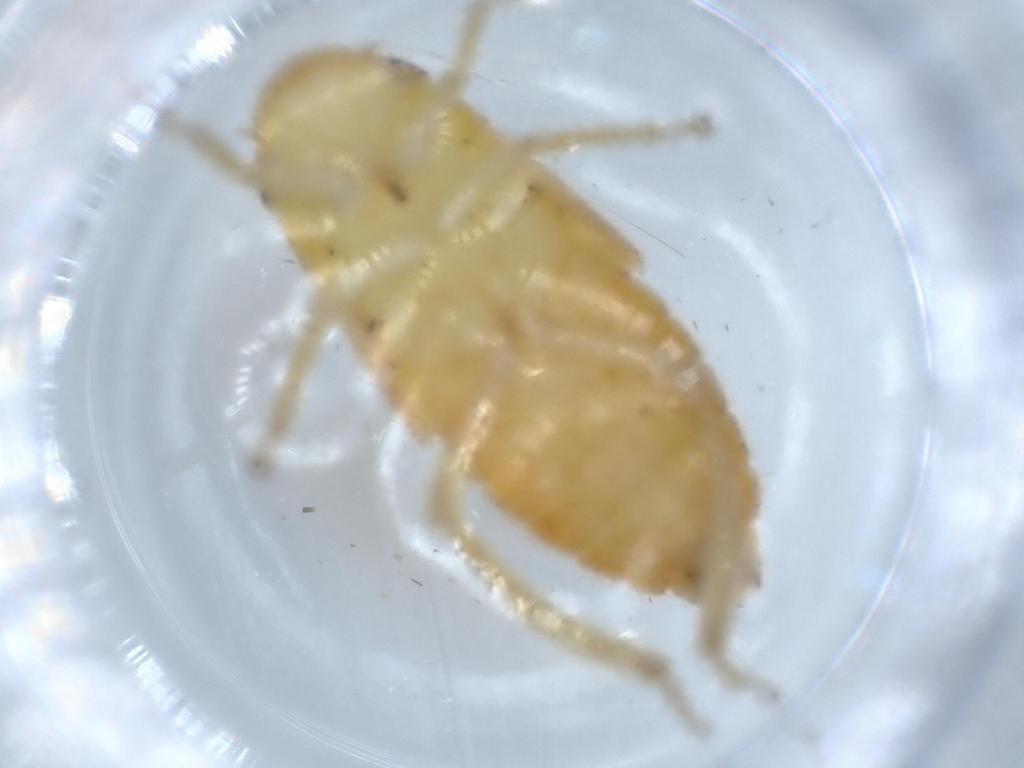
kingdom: Animalia
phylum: Arthropoda
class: Insecta
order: Hemiptera
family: Cicadellidae
